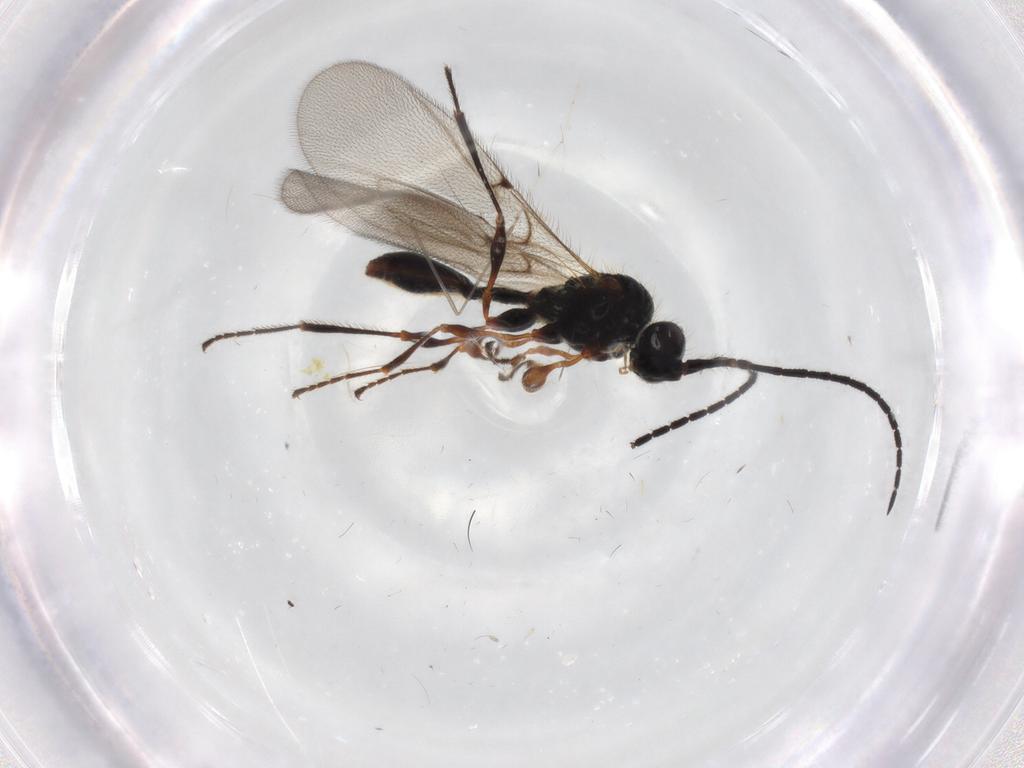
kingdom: Animalia
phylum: Arthropoda
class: Insecta
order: Hymenoptera
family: Diapriidae
